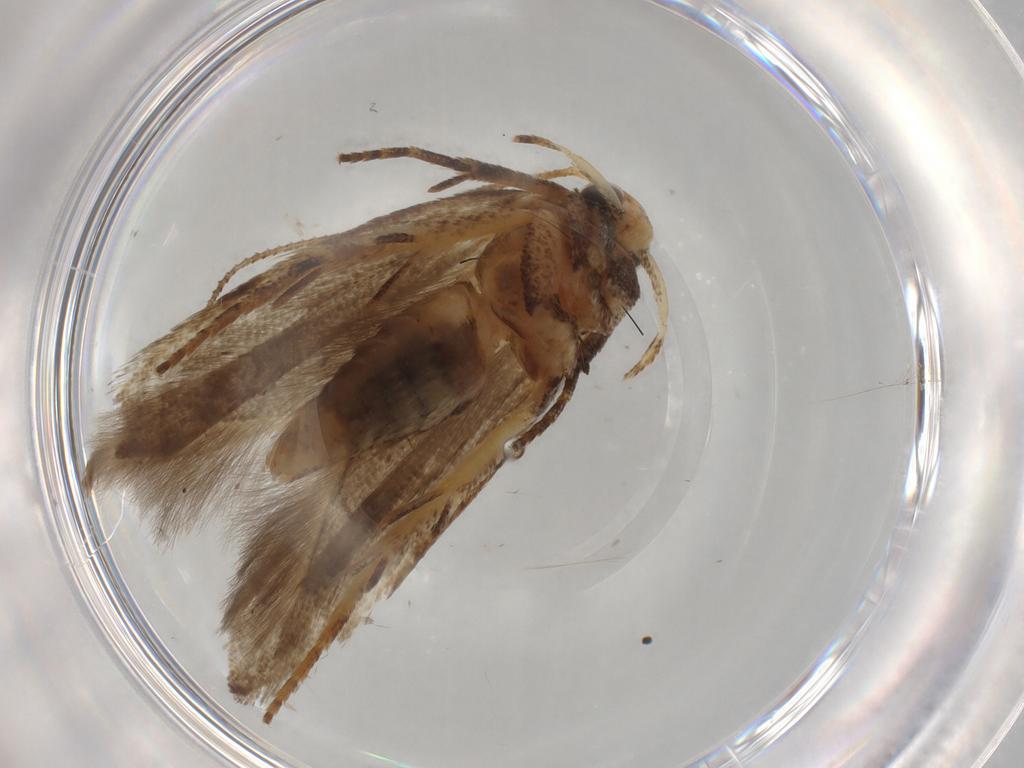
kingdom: Animalia
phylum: Arthropoda
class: Insecta
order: Lepidoptera
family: Gelechiidae
